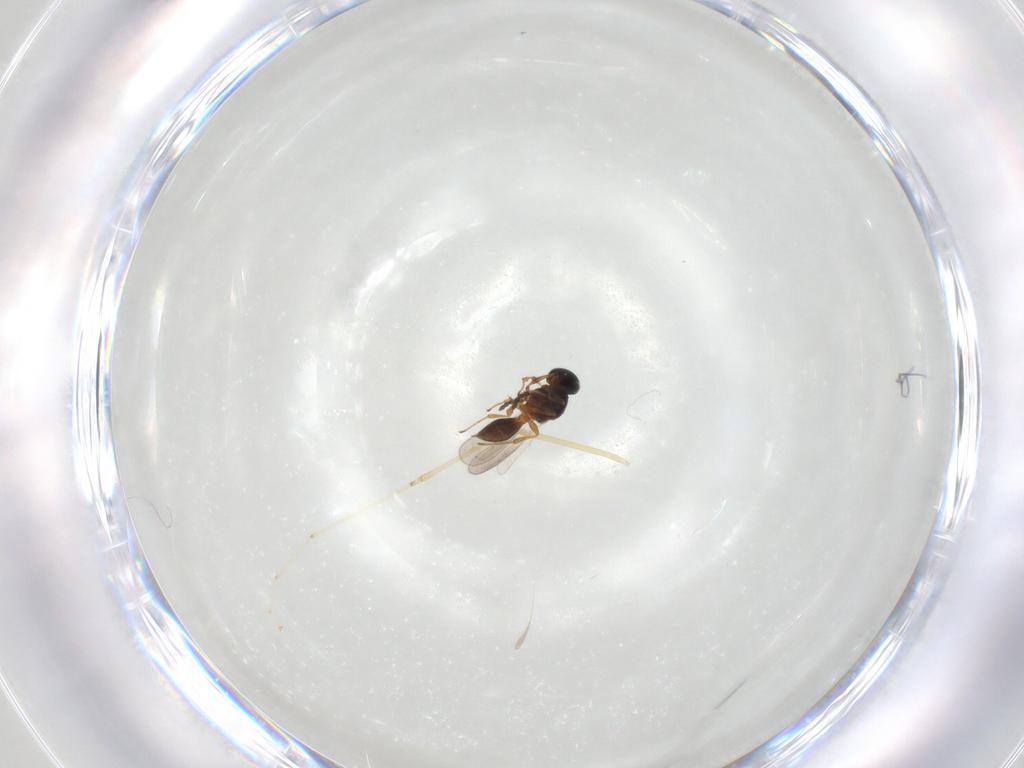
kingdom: Animalia
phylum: Arthropoda
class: Insecta
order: Hymenoptera
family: Platygastridae
